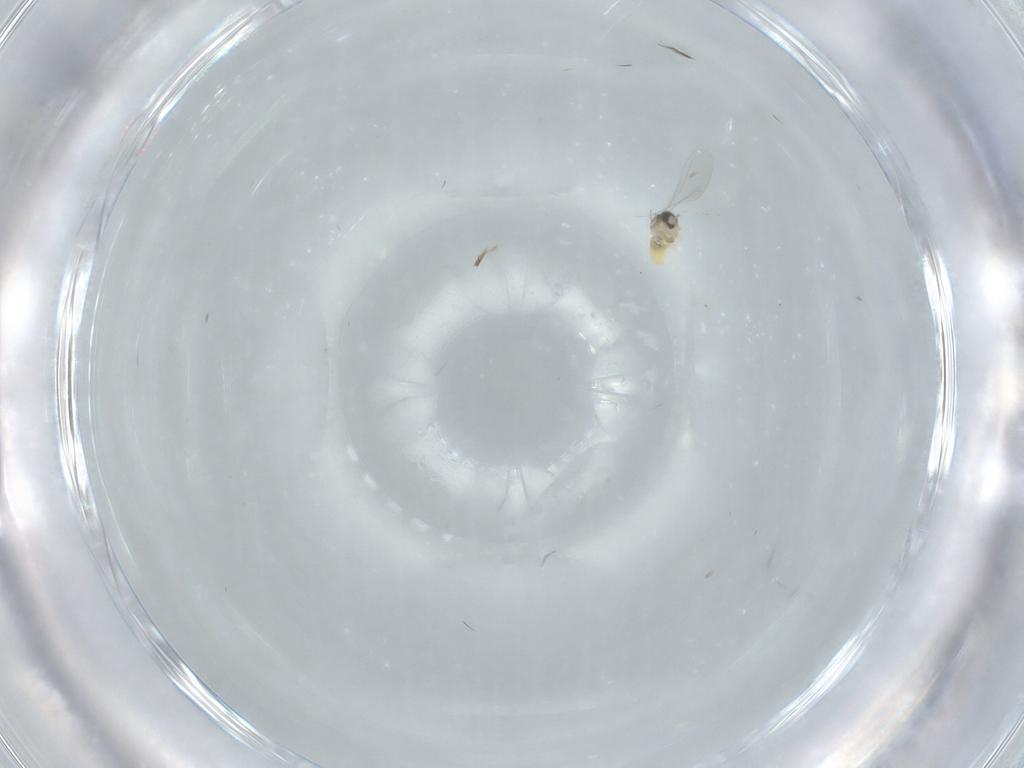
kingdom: Animalia
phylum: Arthropoda
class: Insecta
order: Diptera
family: Cecidomyiidae
